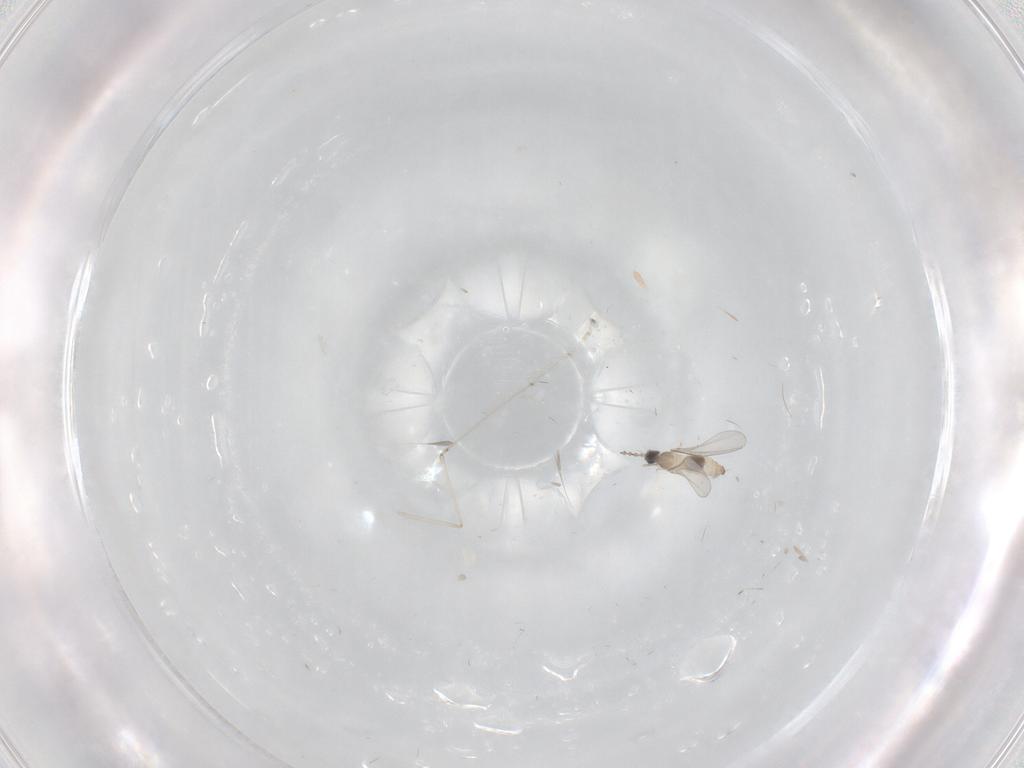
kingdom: Animalia
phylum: Arthropoda
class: Insecta
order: Diptera
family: Cecidomyiidae
